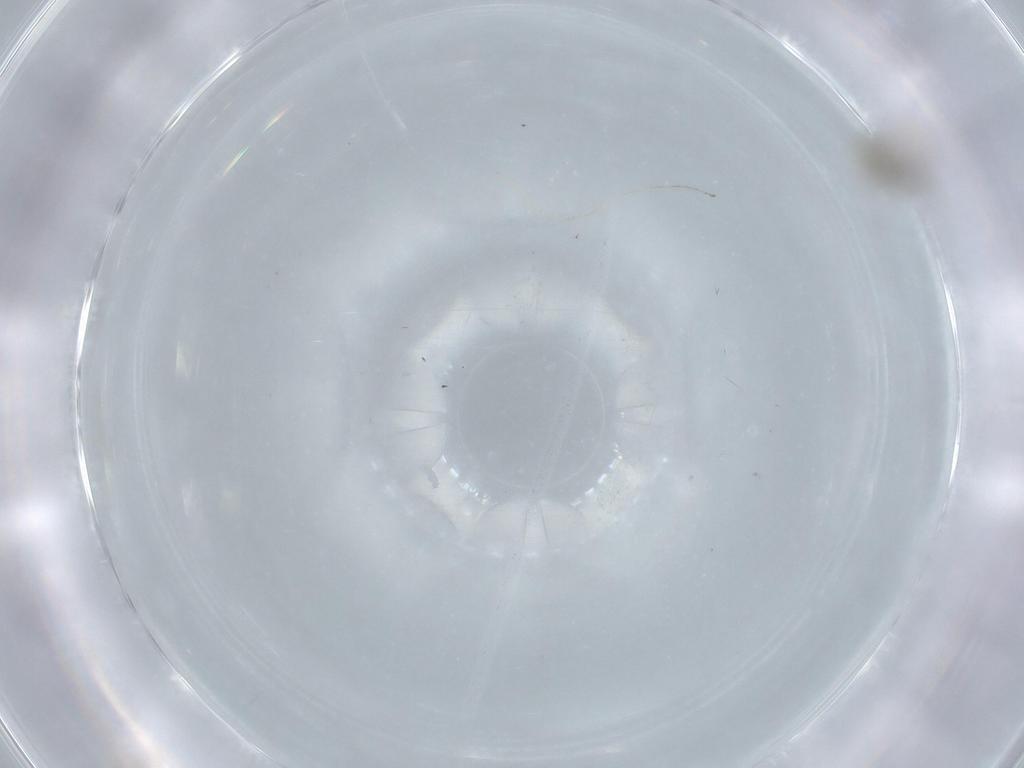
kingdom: Animalia
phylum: Arthropoda
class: Insecta
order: Diptera
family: Cecidomyiidae
